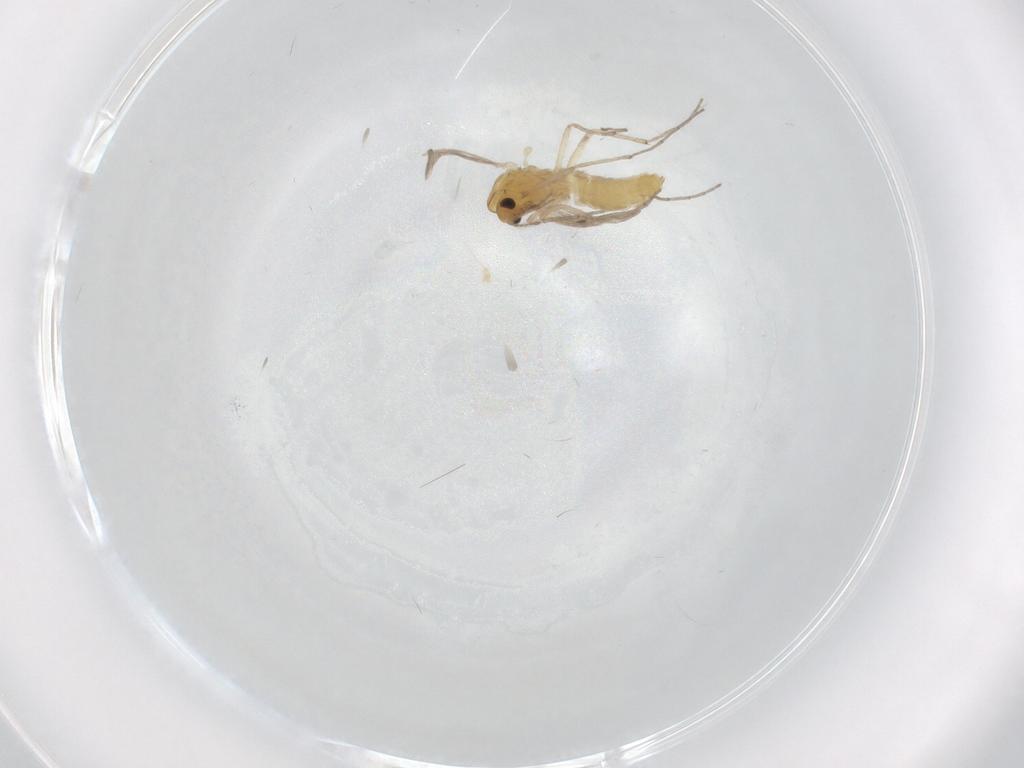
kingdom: Animalia
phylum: Arthropoda
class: Insecta
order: Diptera
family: Chironomidae
